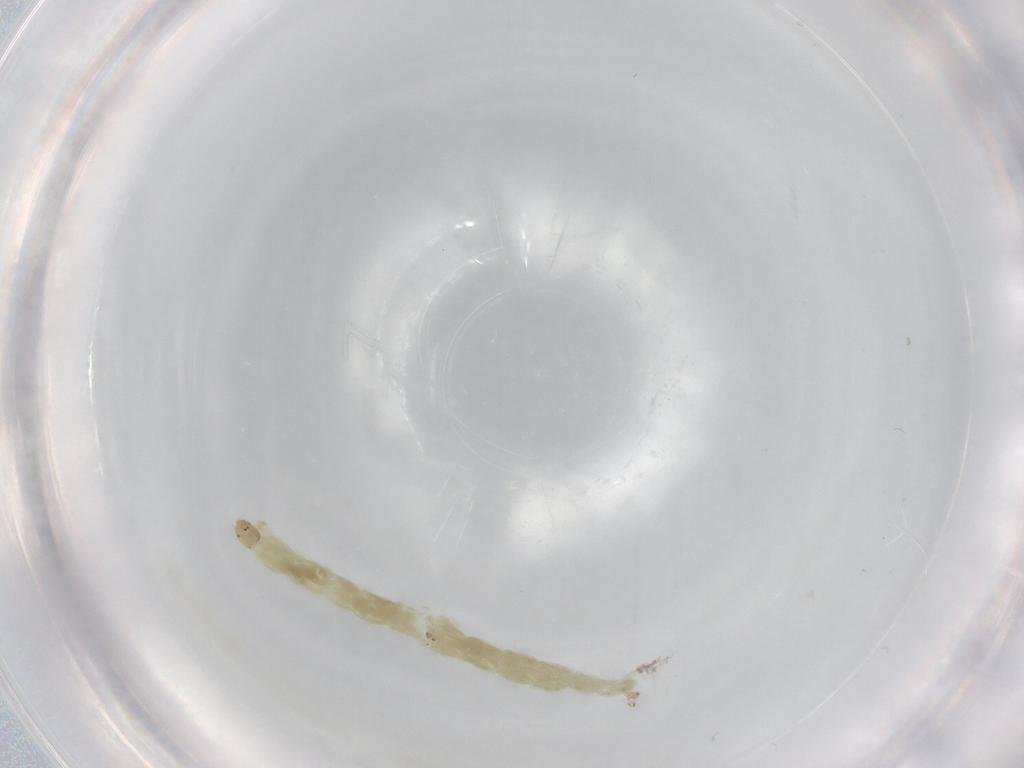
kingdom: Animalia
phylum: Arthropoda
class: Insecta
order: Diptera
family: Chironomidae
